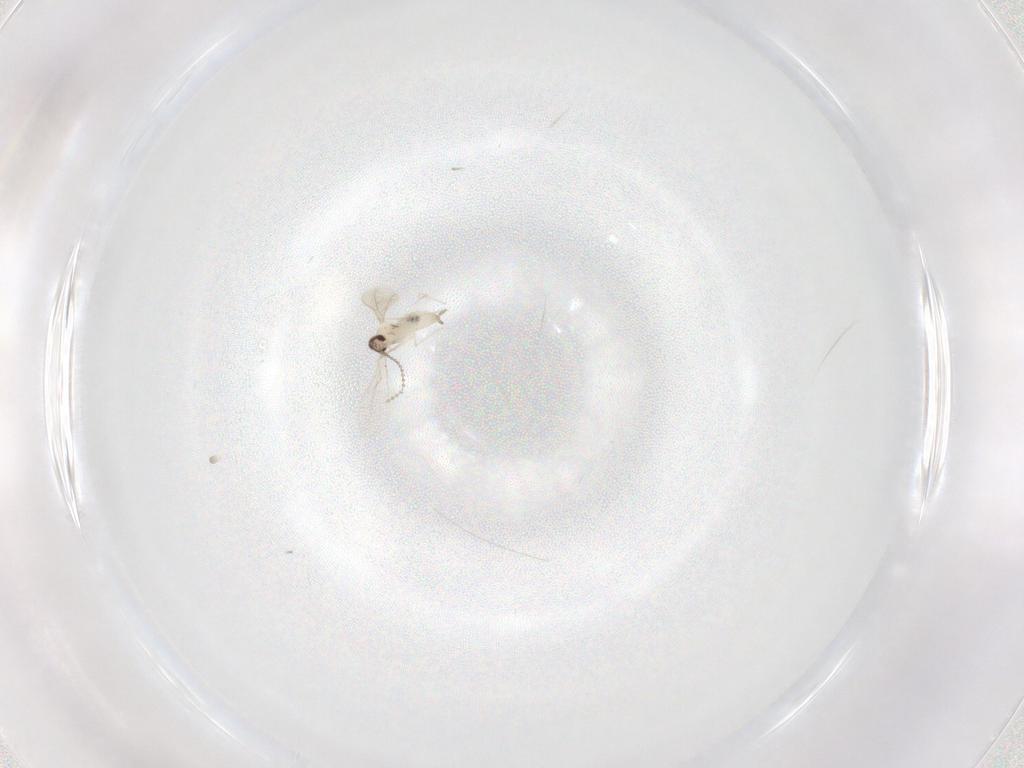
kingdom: Animalia
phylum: Arthropoda
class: Insecta
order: Diptera
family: Cecidomyiidae
